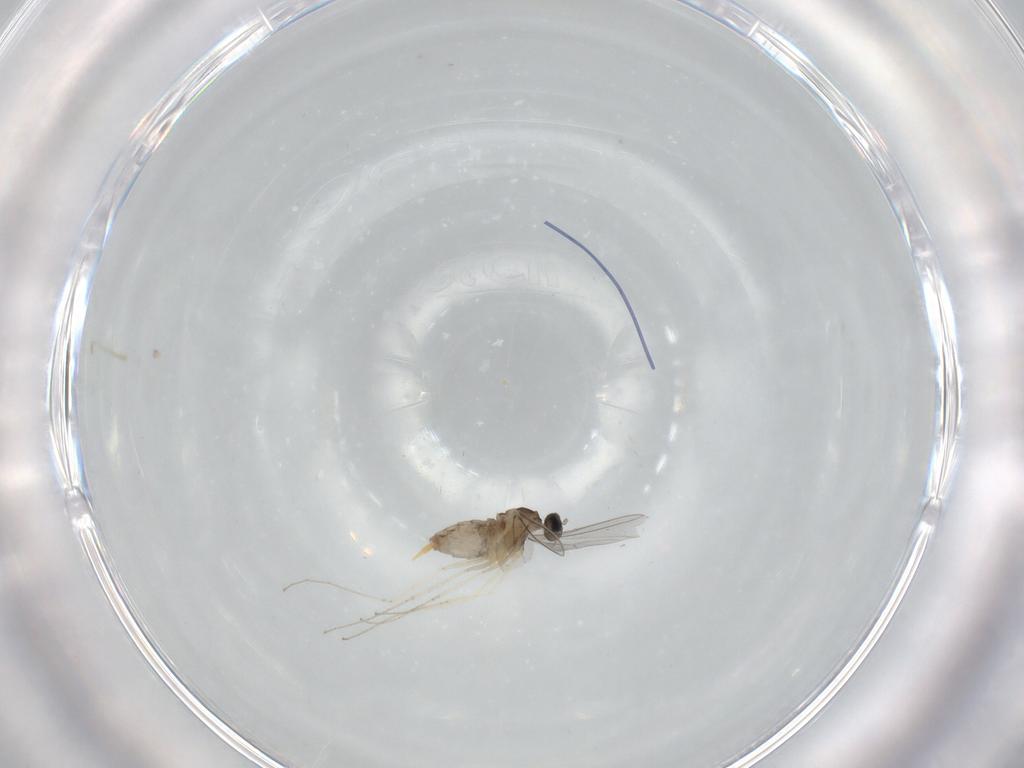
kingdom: Animalia
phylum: Arthropoda
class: Insecta
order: Diptera
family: Cecidomyiidae
